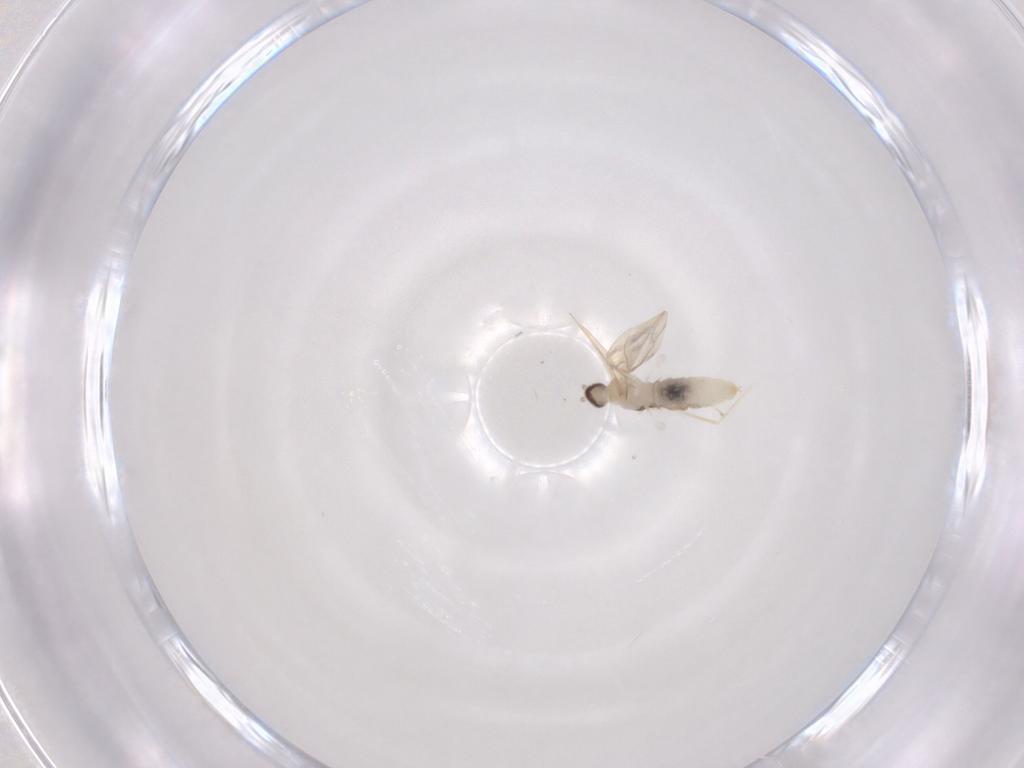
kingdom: Animalia
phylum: Arthropoda
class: Insecta
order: Diptera
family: Cecidomyiidae
